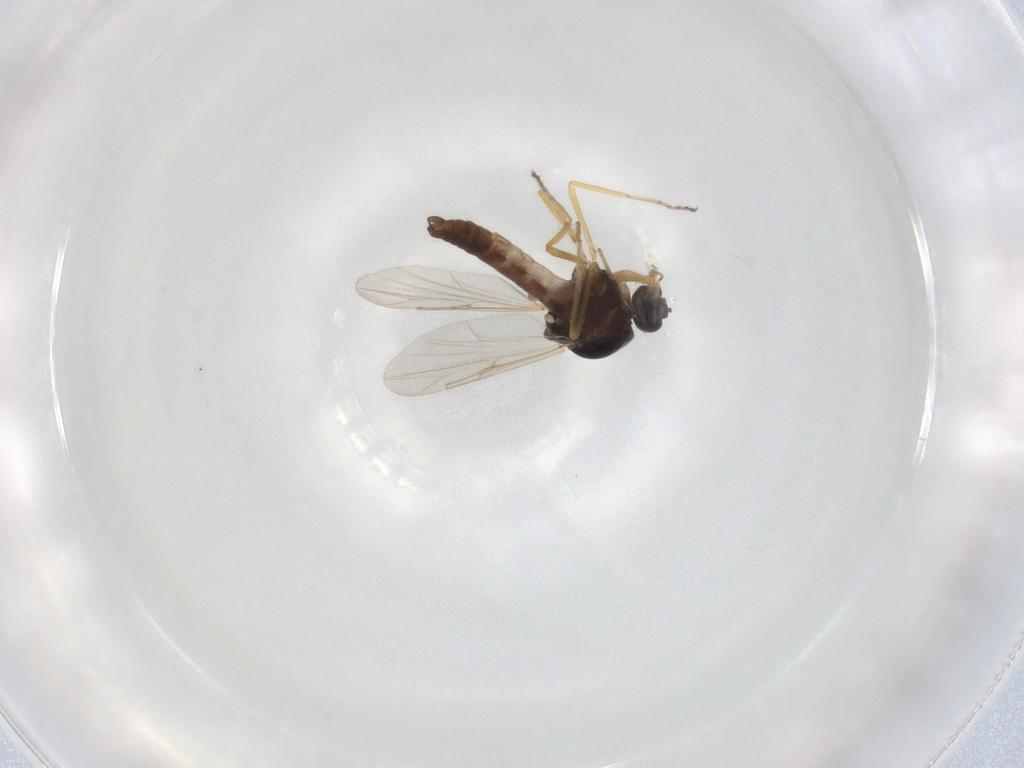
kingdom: Animalia
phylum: Arthropoda
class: Insecta
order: Diptera
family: Ceratopogonidae
